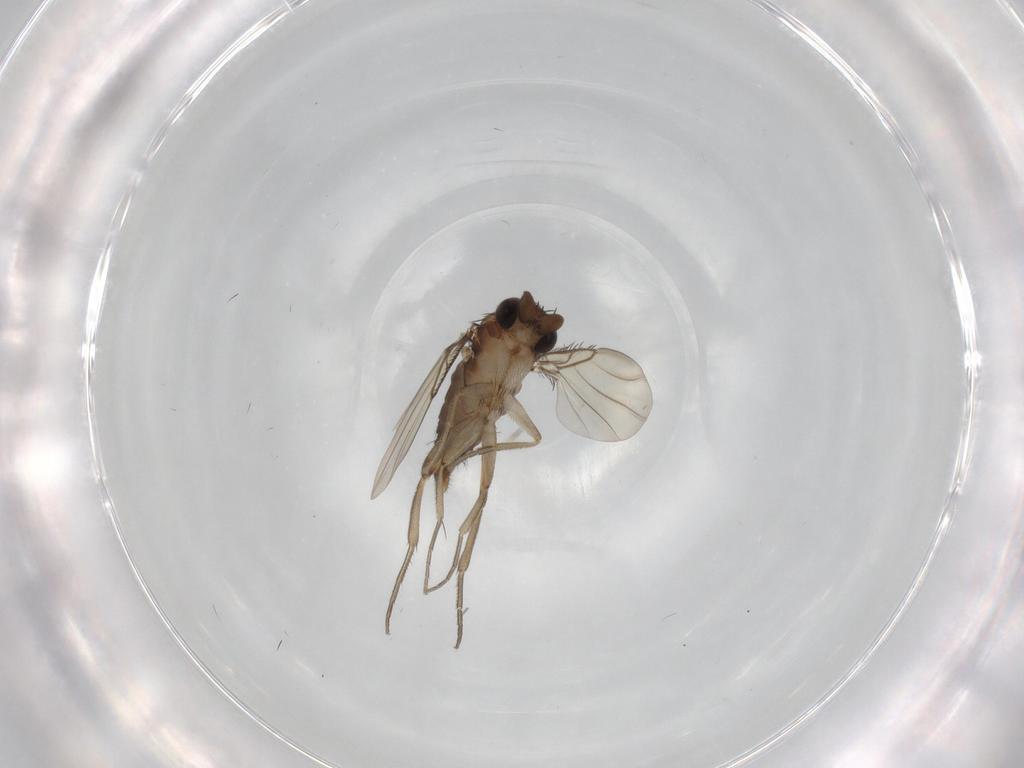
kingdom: Animalia
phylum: Arthropoda
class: Insecta
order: Diptera
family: Phoridae
